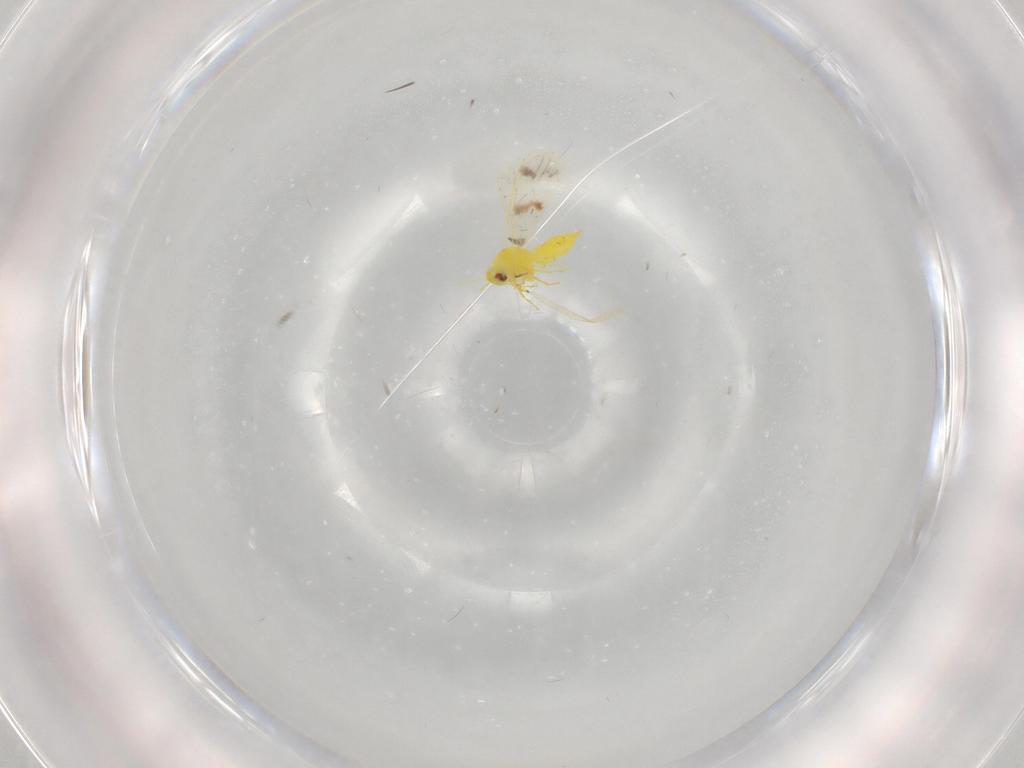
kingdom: Animalia
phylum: Arthropoda
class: Insecta
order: Hemiptera
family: Aleyrodidae
